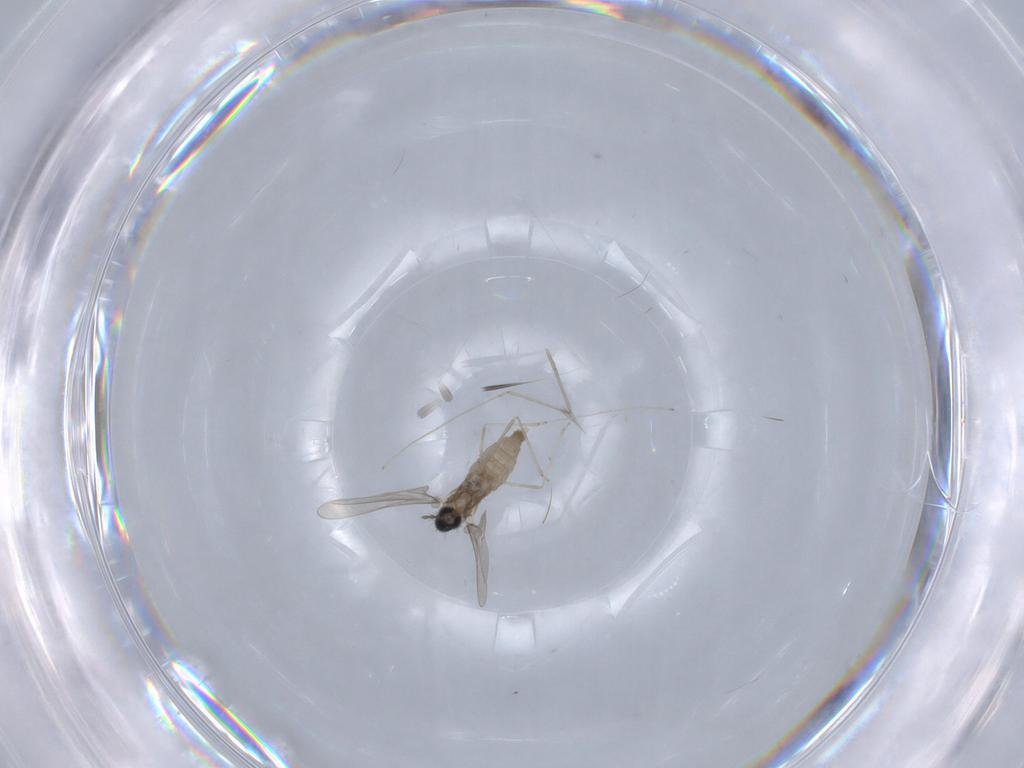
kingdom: Animalia
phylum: Arthropoda
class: Insecta
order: Diptera
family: Cecidomyiidae
